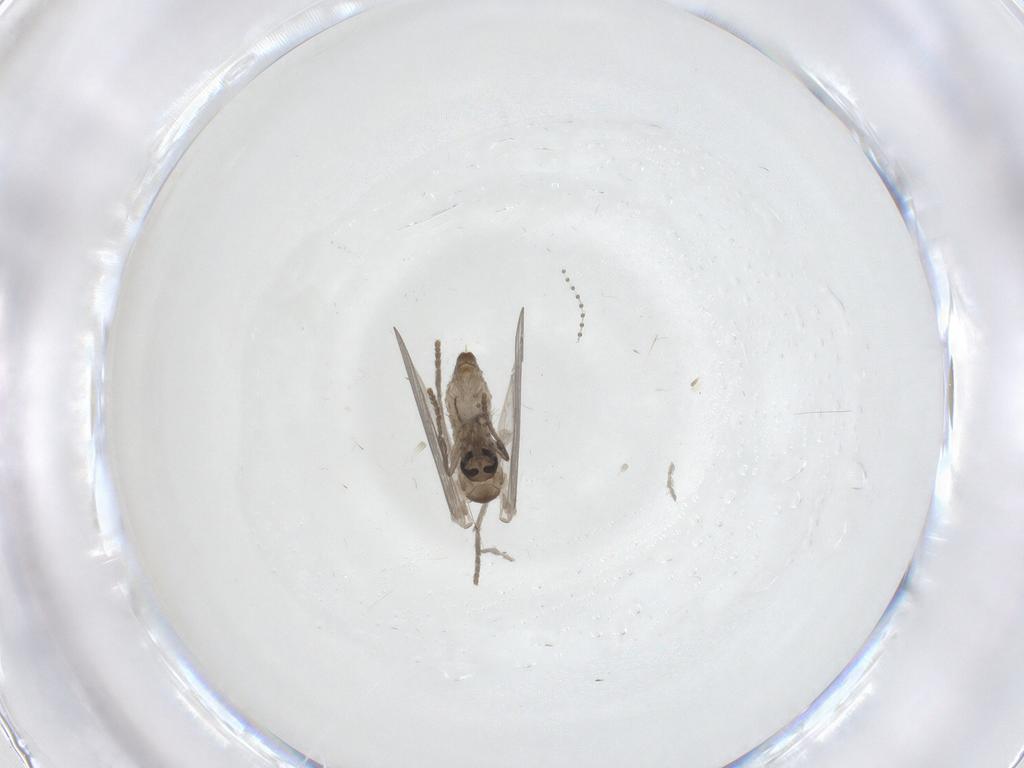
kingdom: Animalia
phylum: Arthropoda
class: Insecta
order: Diptera
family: Psychodidae
